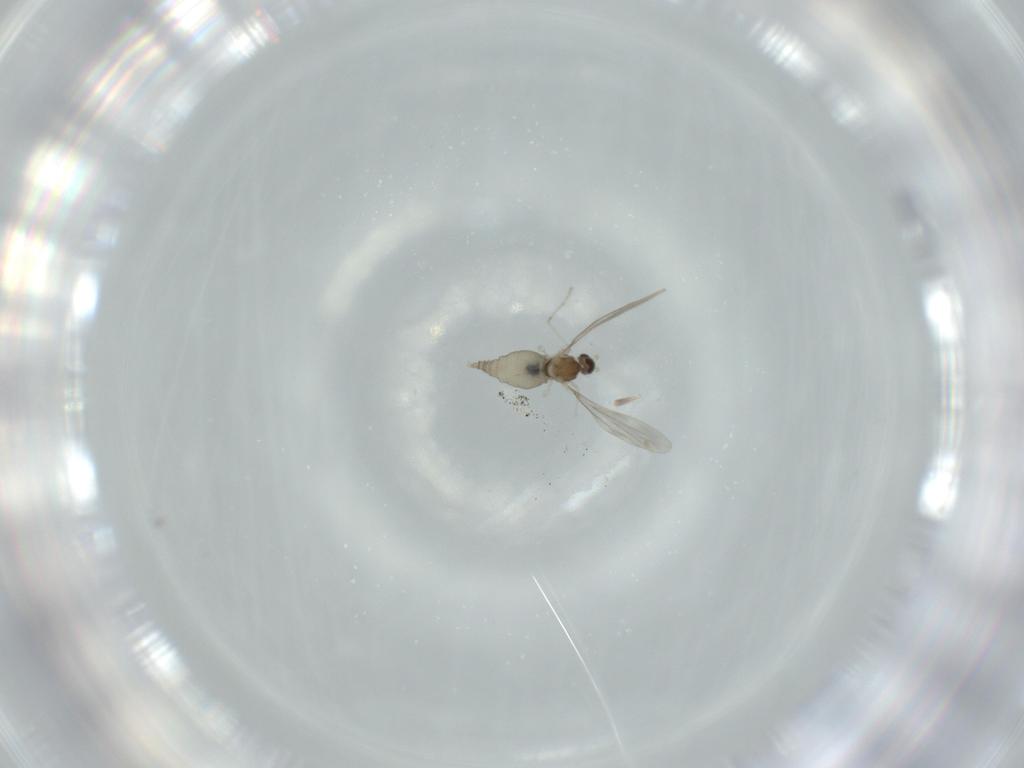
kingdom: Animalia
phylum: Arthropoda
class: Insecta
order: Diptera
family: Cecidomyiidae
